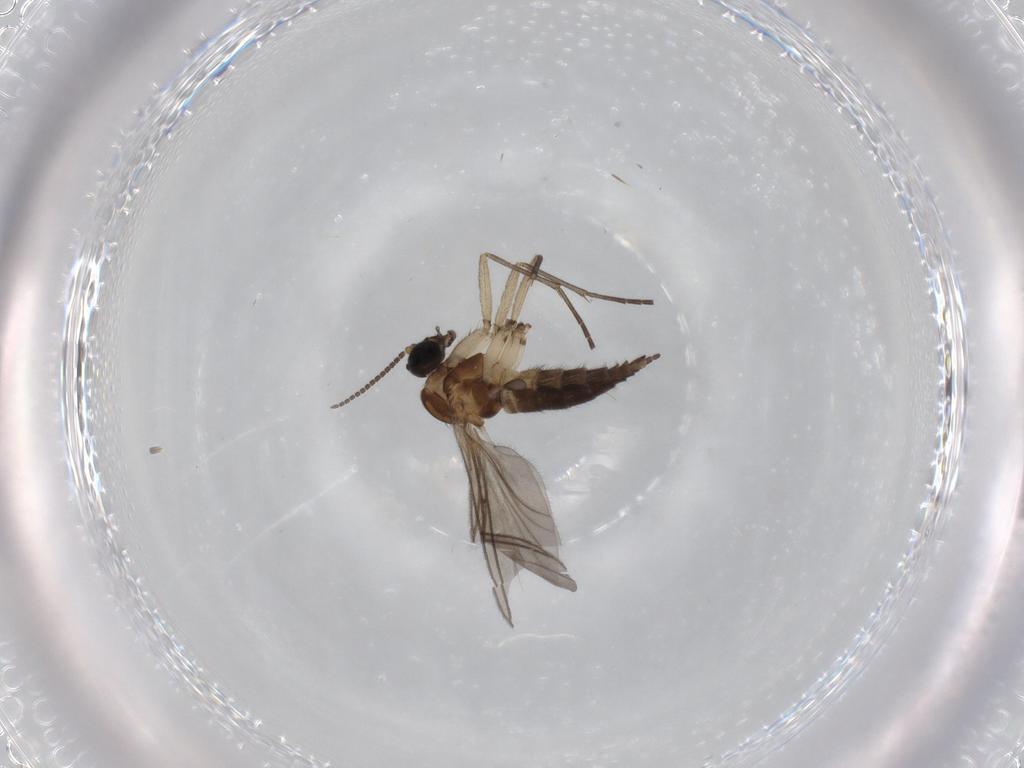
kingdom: Animalia
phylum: Arthropoda
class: Insecta
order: Diptera
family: Sciaridae
